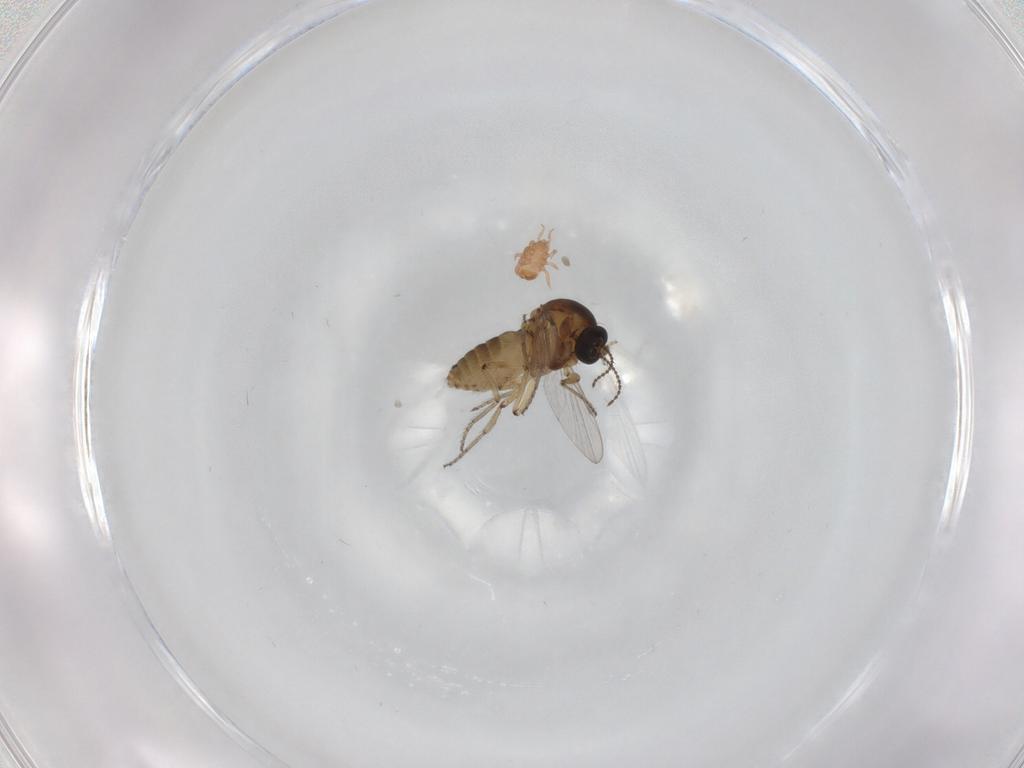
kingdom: Animalia
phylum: Arthropoda
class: Insecta
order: Diptera
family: Ceratopogonidae
